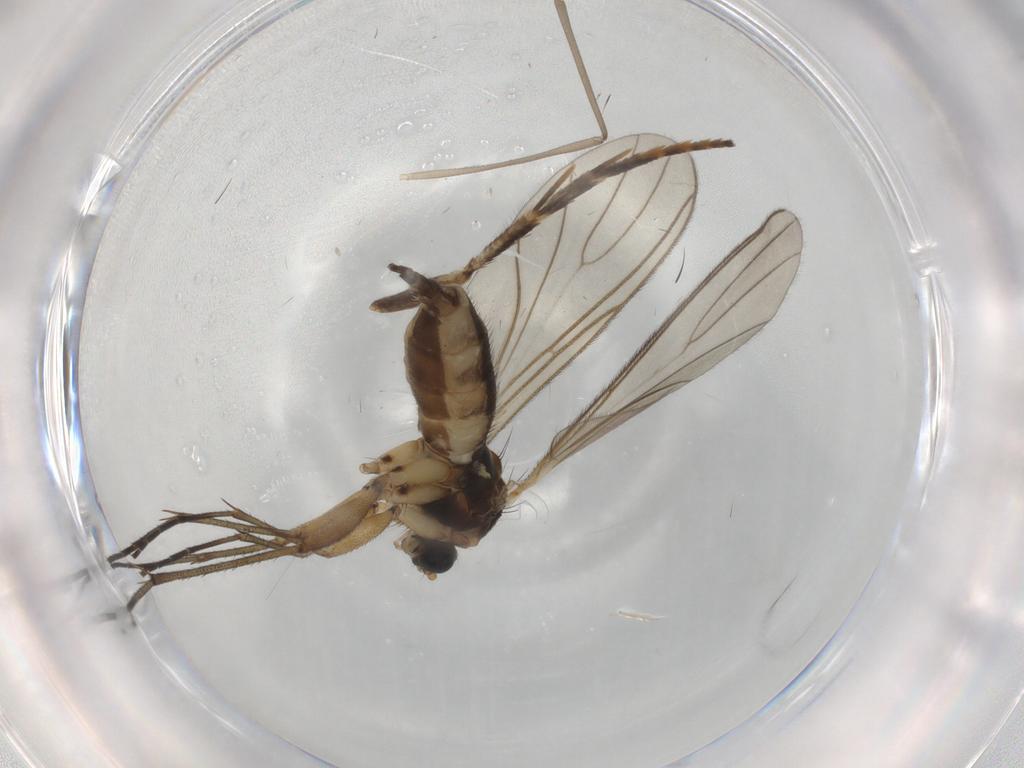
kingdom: Animalia
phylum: Arthropoda
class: Insecta
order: Diptera
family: Sciaridae
